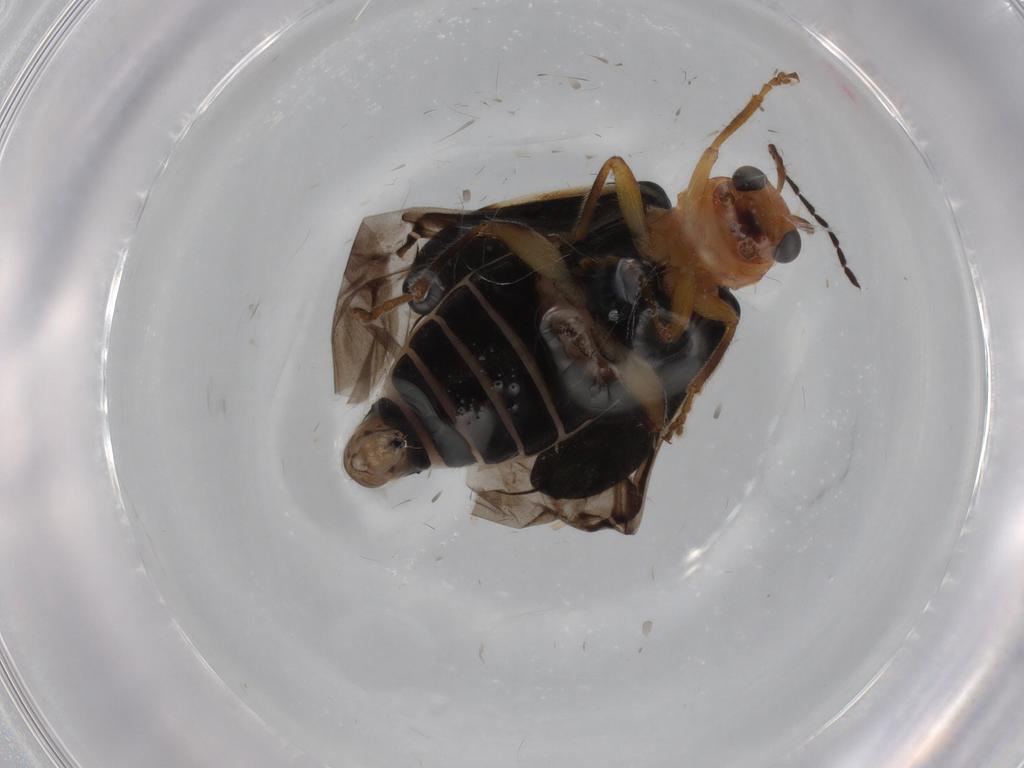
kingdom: Animalia
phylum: Arthropoda
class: Insecta
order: Coleoptera
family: Chrysomelidae
